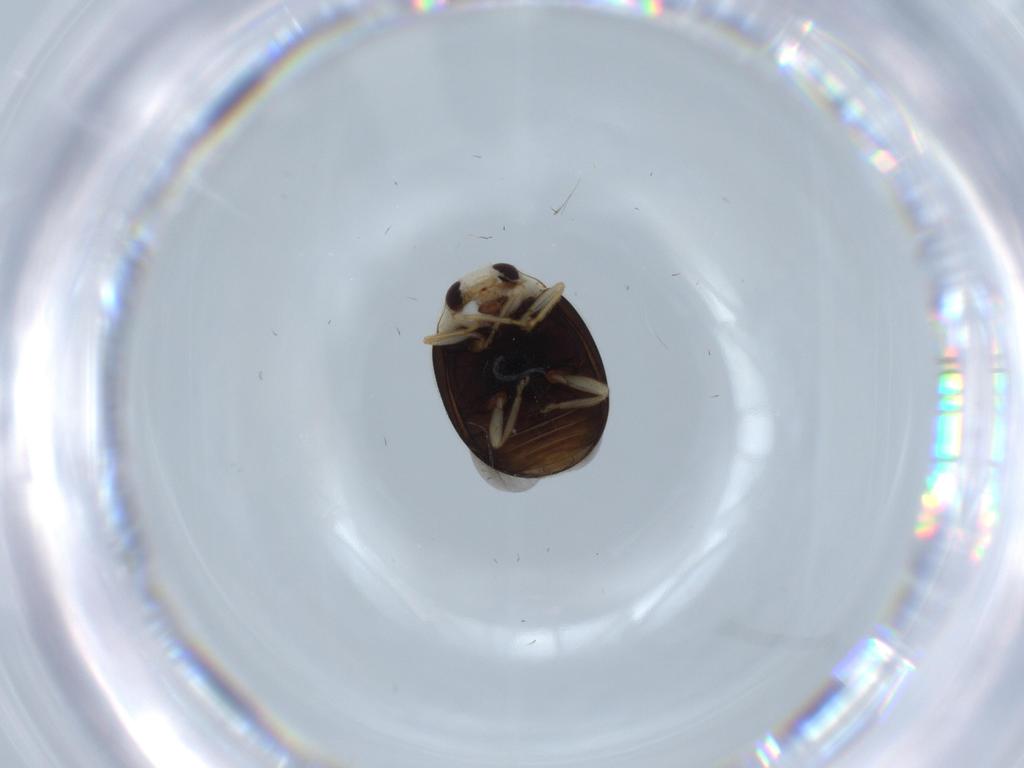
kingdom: Animalia
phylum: Arthropoda
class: Insecta
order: Coleoptera
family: Coccinellidae
